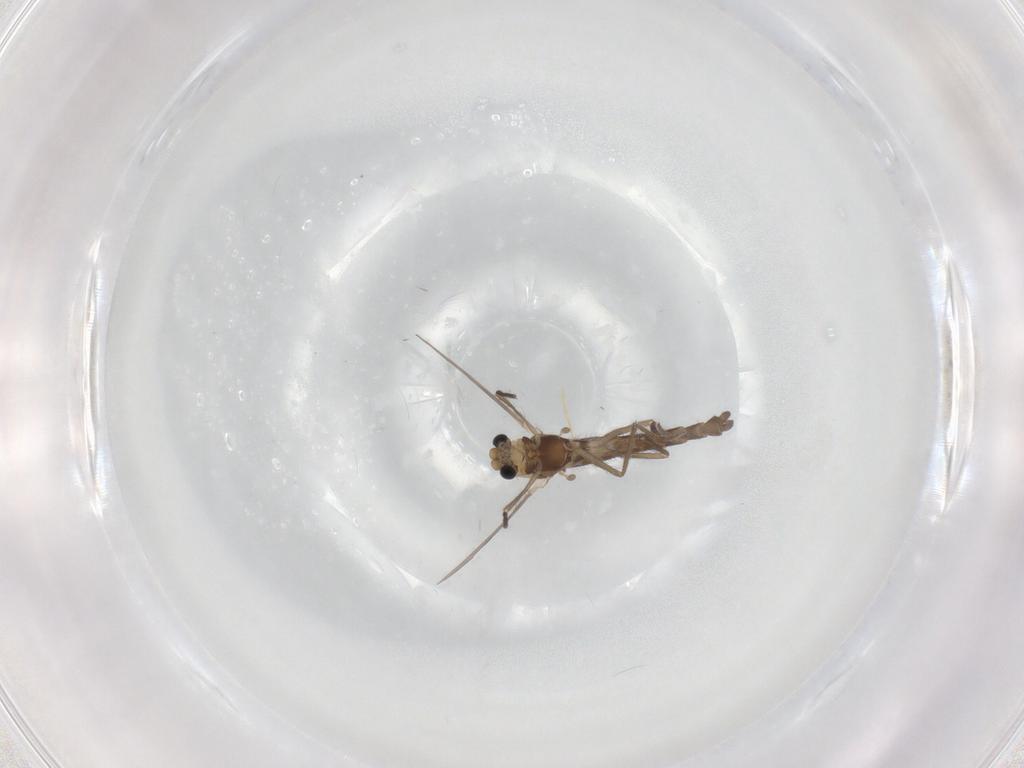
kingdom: Animalia
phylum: Arthropoda
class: Insecta
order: Diptera
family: Chironomidae
